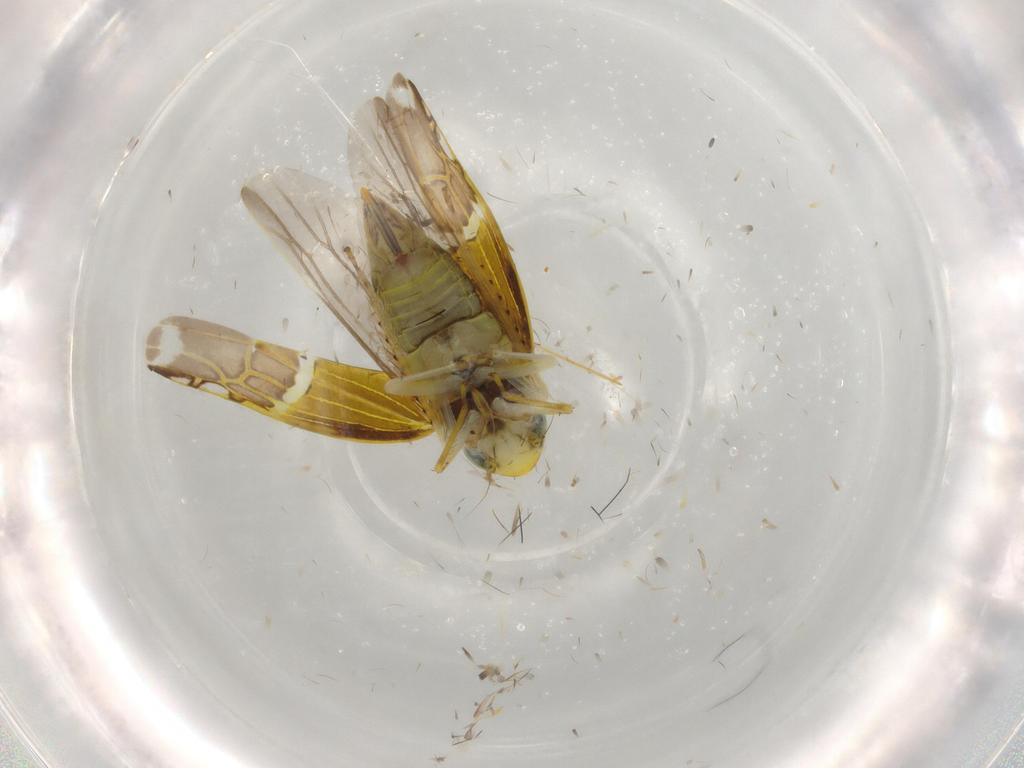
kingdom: Animalia
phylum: Arthropoda
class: Insecta
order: Hemiptera
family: Cicadellidae
